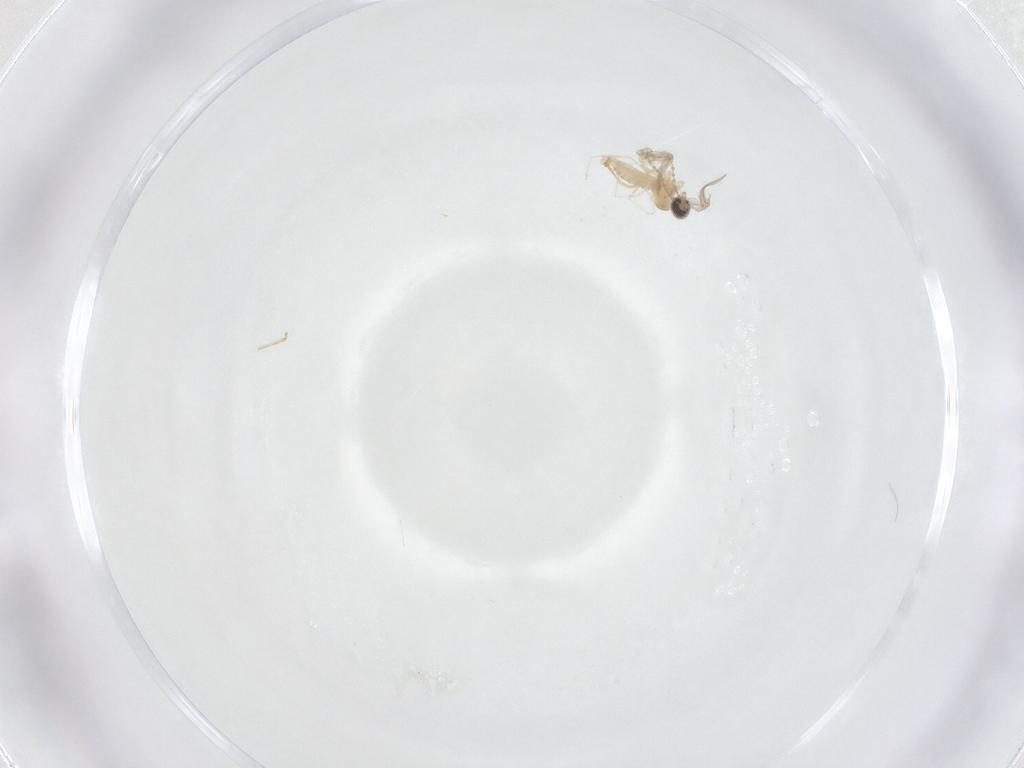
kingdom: Animalia
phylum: Arthropoda
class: Insecta
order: Diptera
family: Cecidomyiidae
